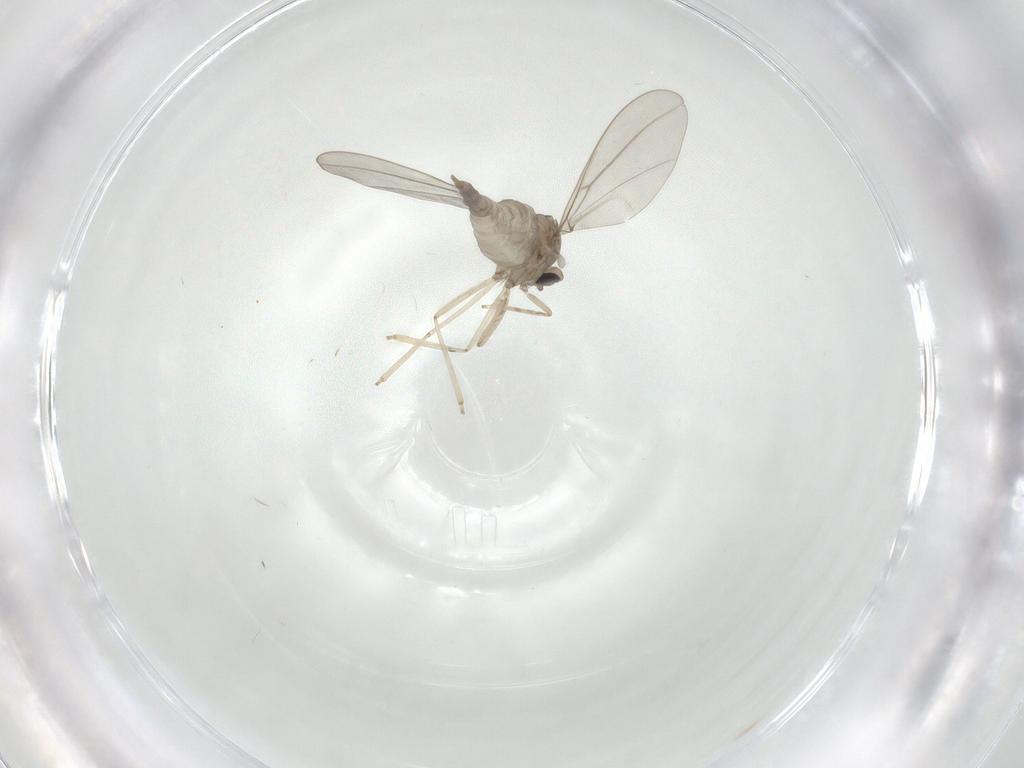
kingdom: Animalia
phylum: Arthropoda
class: Insecta
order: Diptera
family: Cecidomyiidae
